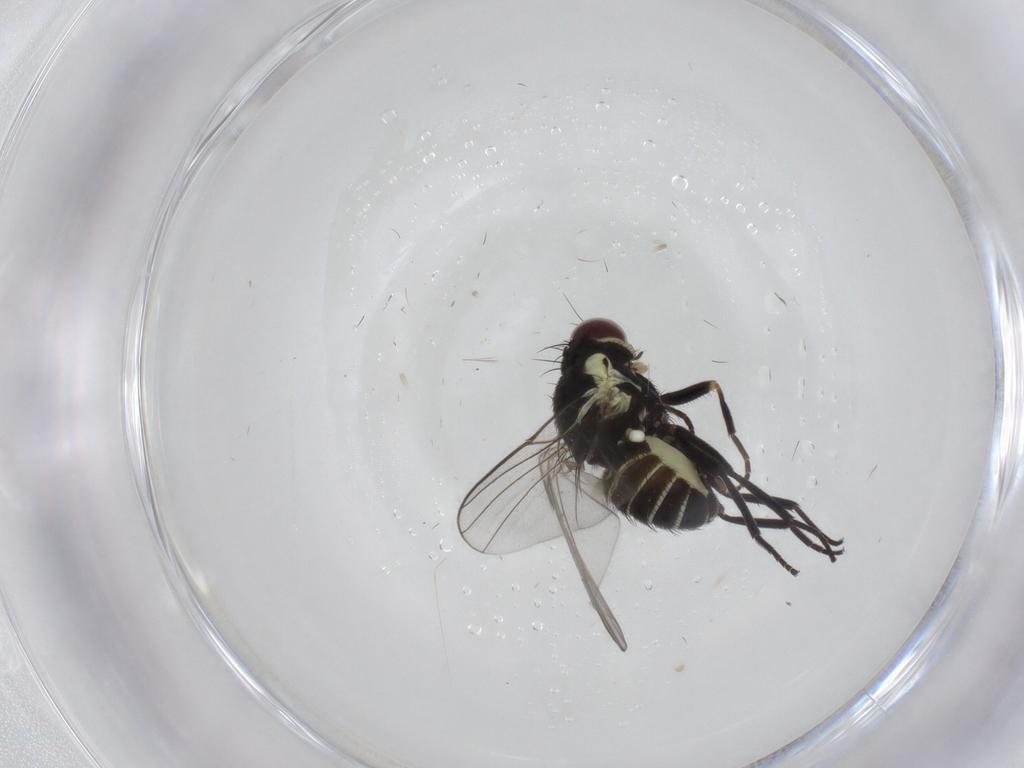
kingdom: Animalia
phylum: Arthropoda
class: Insecta
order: Diptera
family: Agromyzidae
